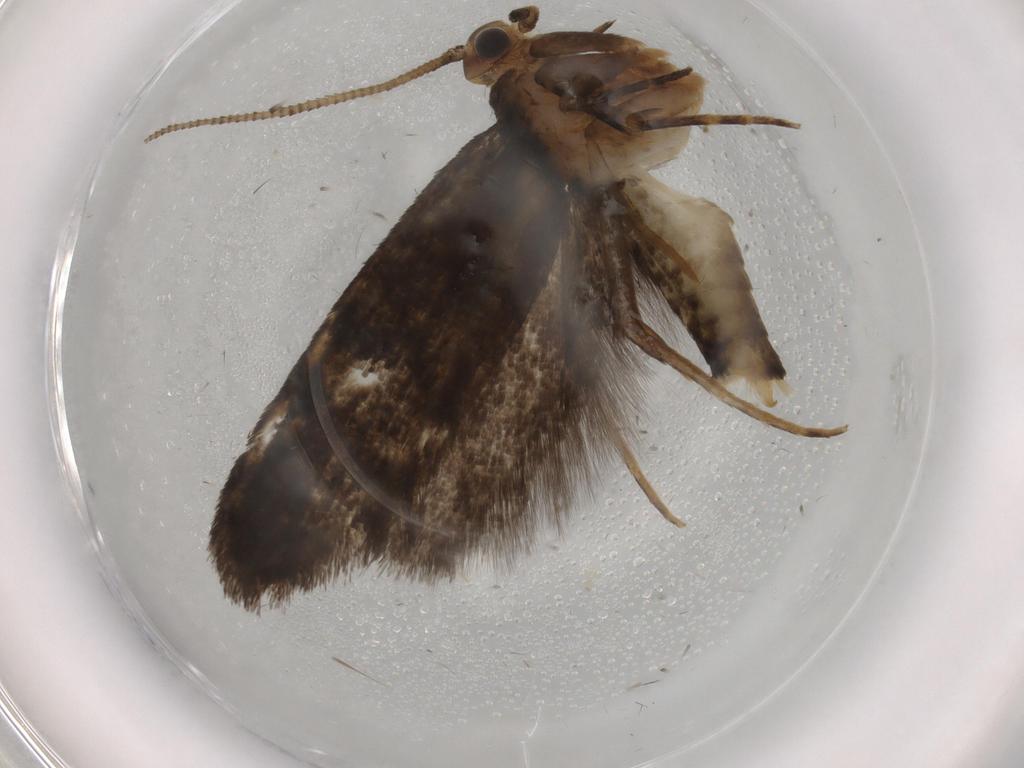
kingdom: Animalia
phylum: Arthropoda
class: Insecta
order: Lepidoptera
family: Tineidae
